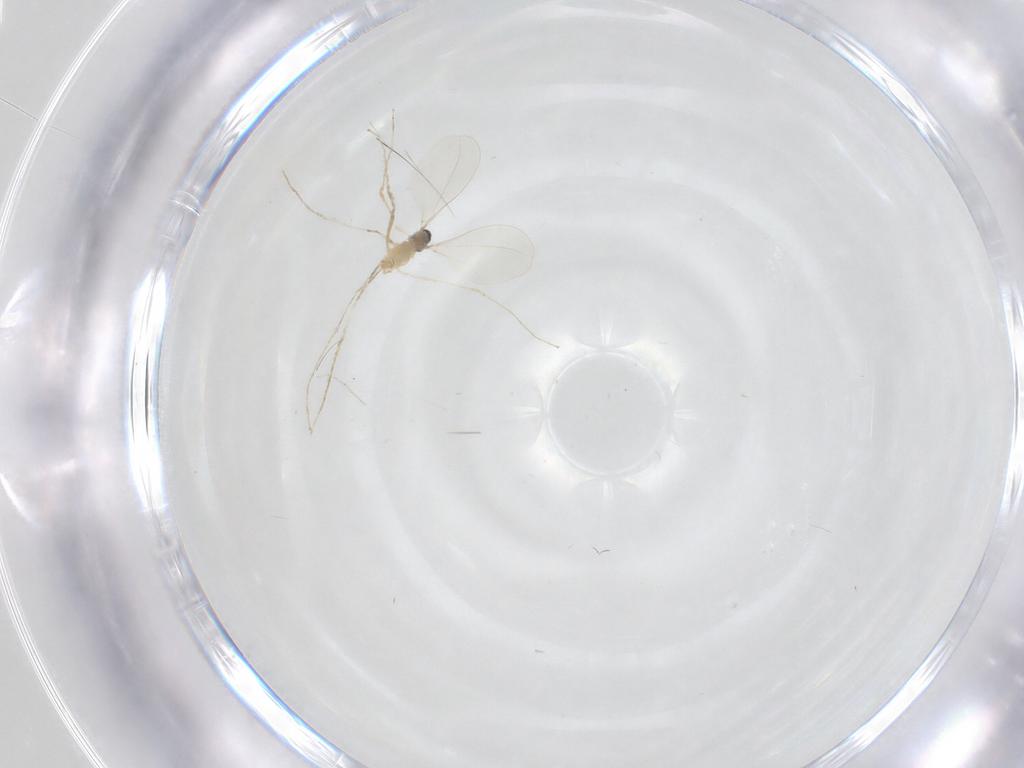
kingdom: Animalia
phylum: Arthropoda
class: Insecta
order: Diptera
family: Cecidomyiidae
